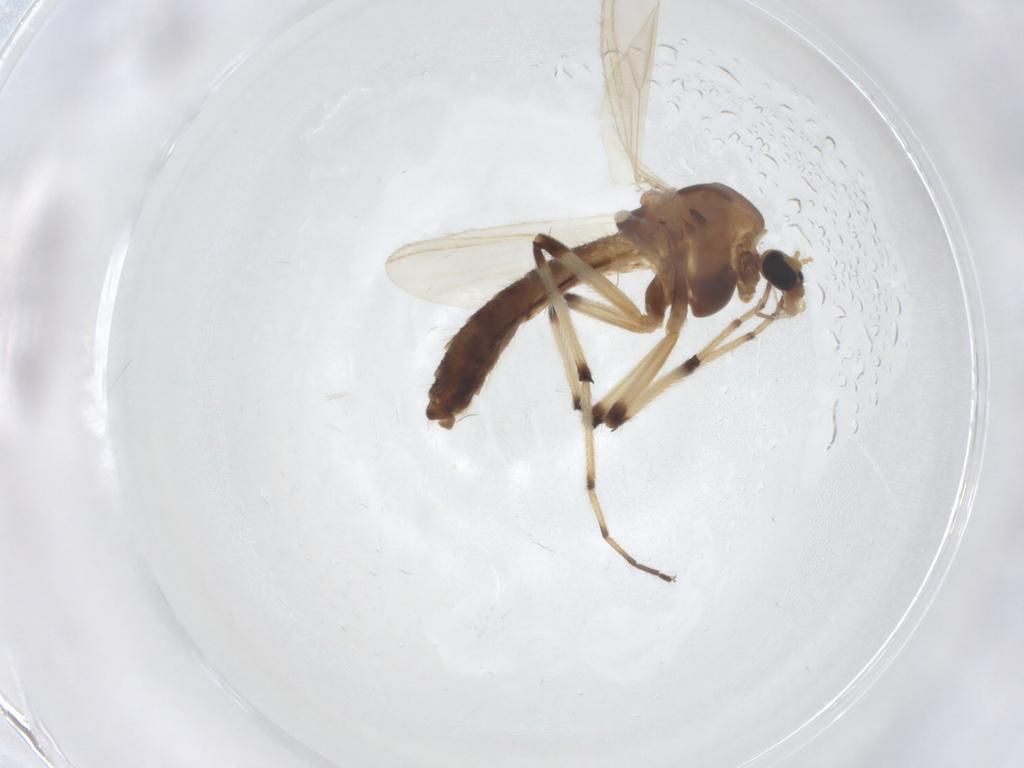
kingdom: Animalia
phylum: Arthropoda
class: Insecta
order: Diptera
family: Chironomidae
